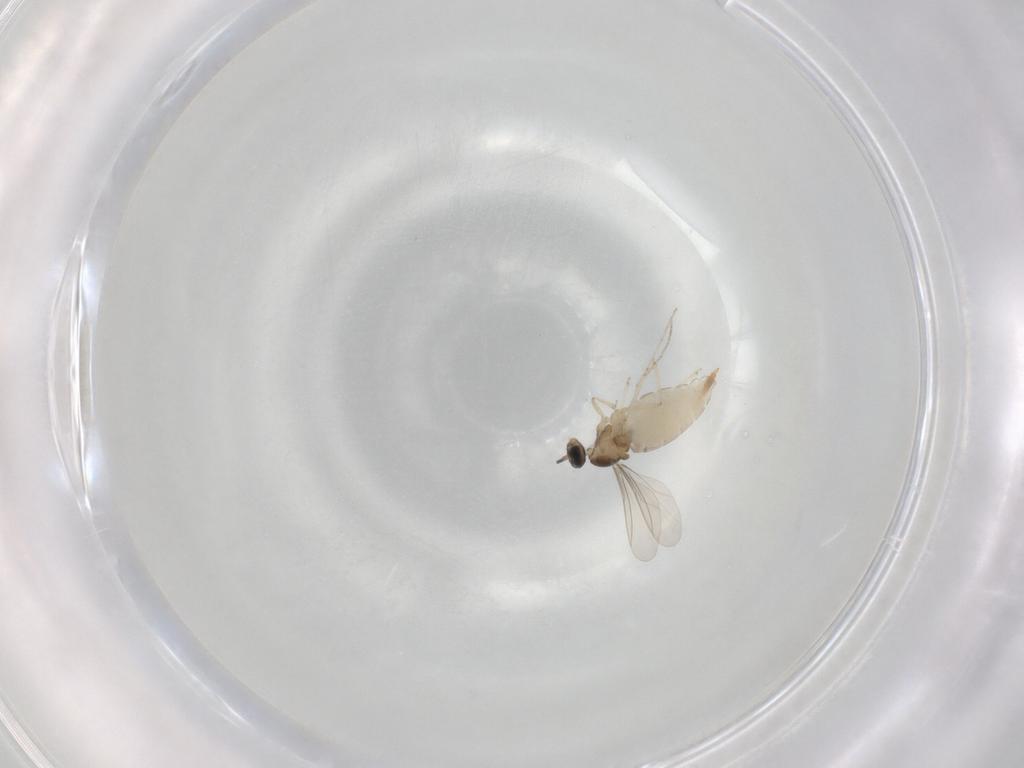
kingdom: Animalia
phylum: Arthropoda
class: Insecta
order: Diptera
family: Cecidomyiidae
